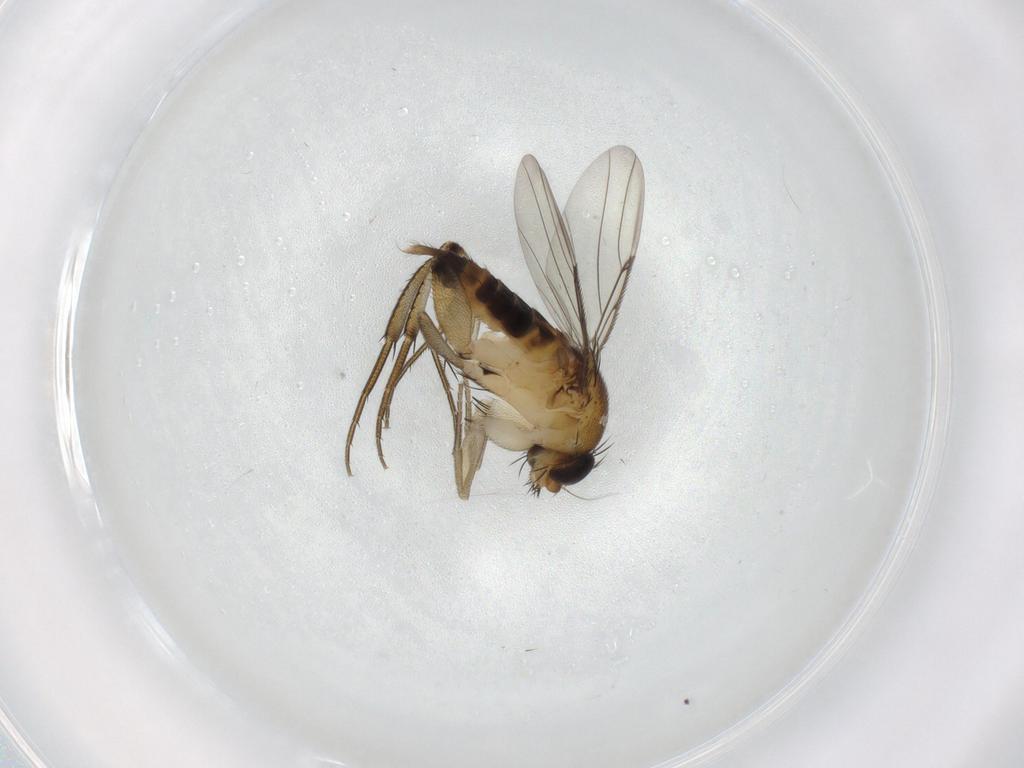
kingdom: Animalia
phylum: Arthropoda
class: Insecta
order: Diptera
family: Phoridae
